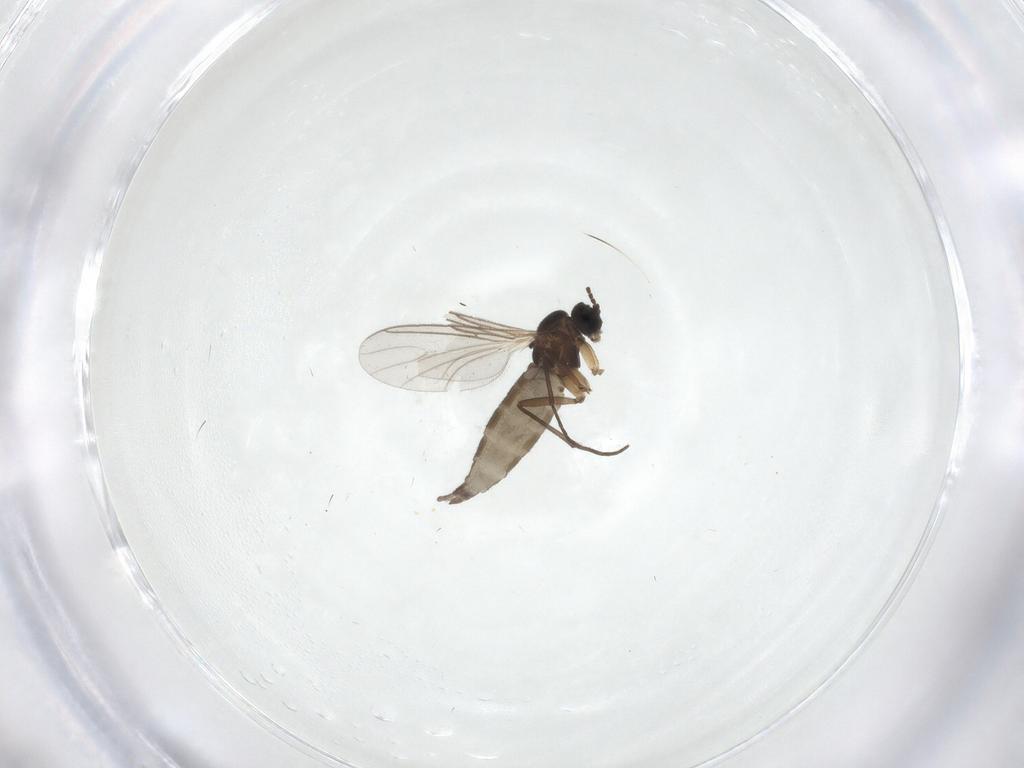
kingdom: Animalia
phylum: Arthropoda
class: Insecta
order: Diptera
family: Sciaridae
